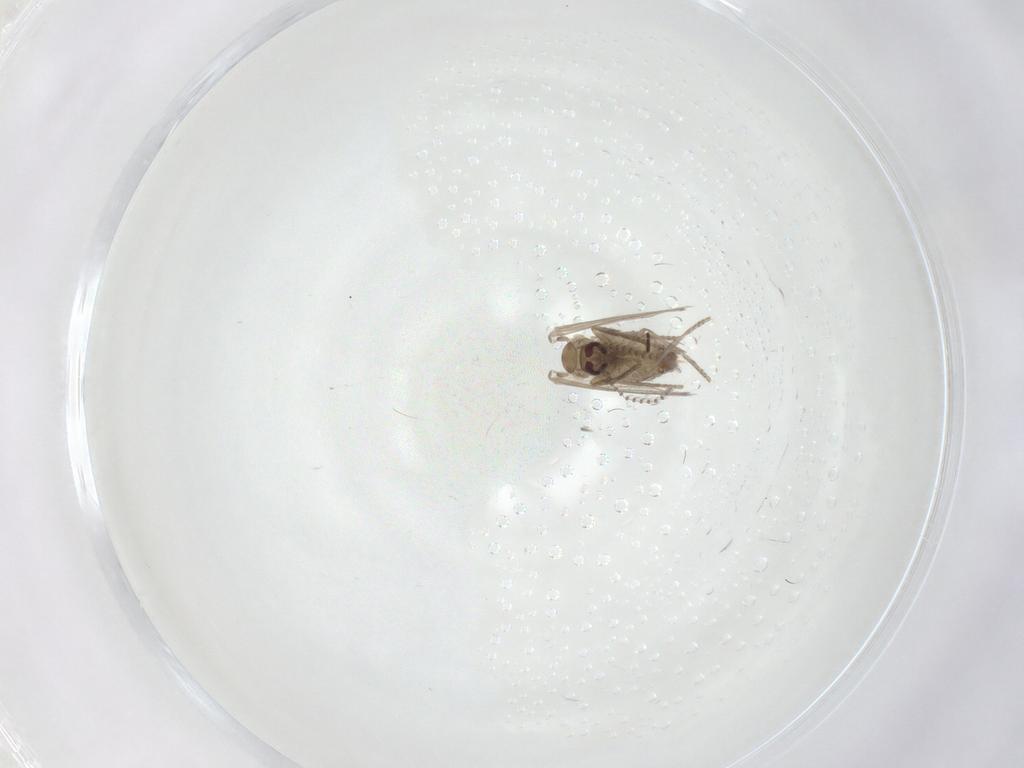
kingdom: Animalia
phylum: Arthropoda
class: Insecta
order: Diptera
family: Psychodidae
